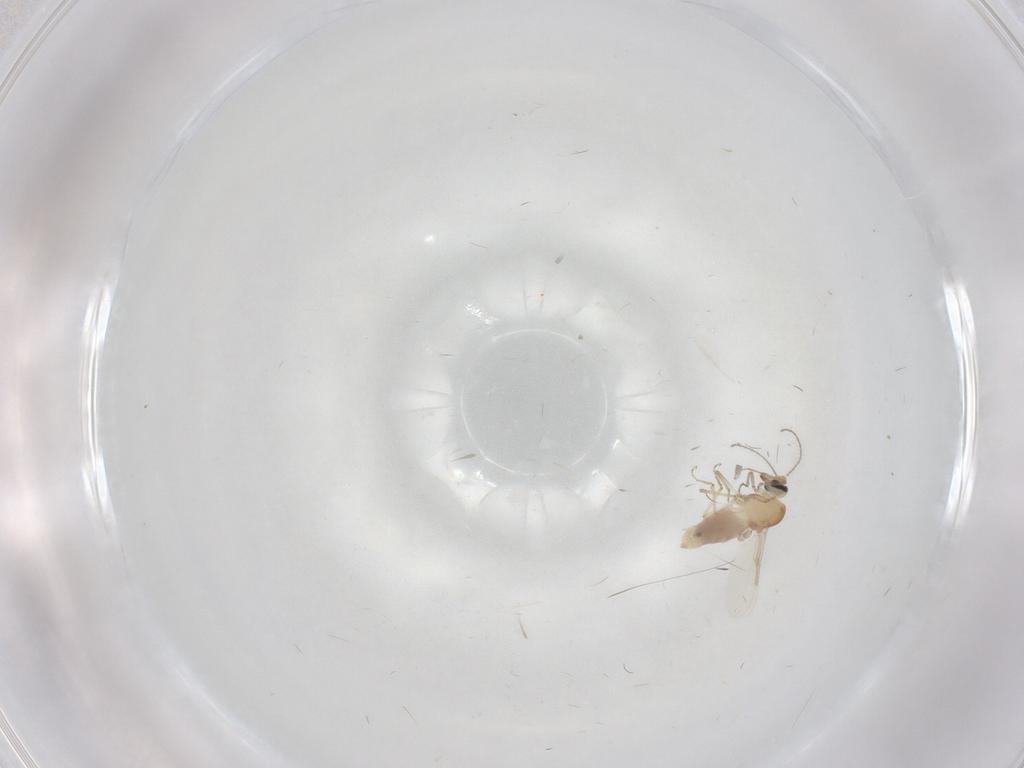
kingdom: Animalia
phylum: Arthropoda
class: Insecta
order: Diptera
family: Ceratopogonidae
